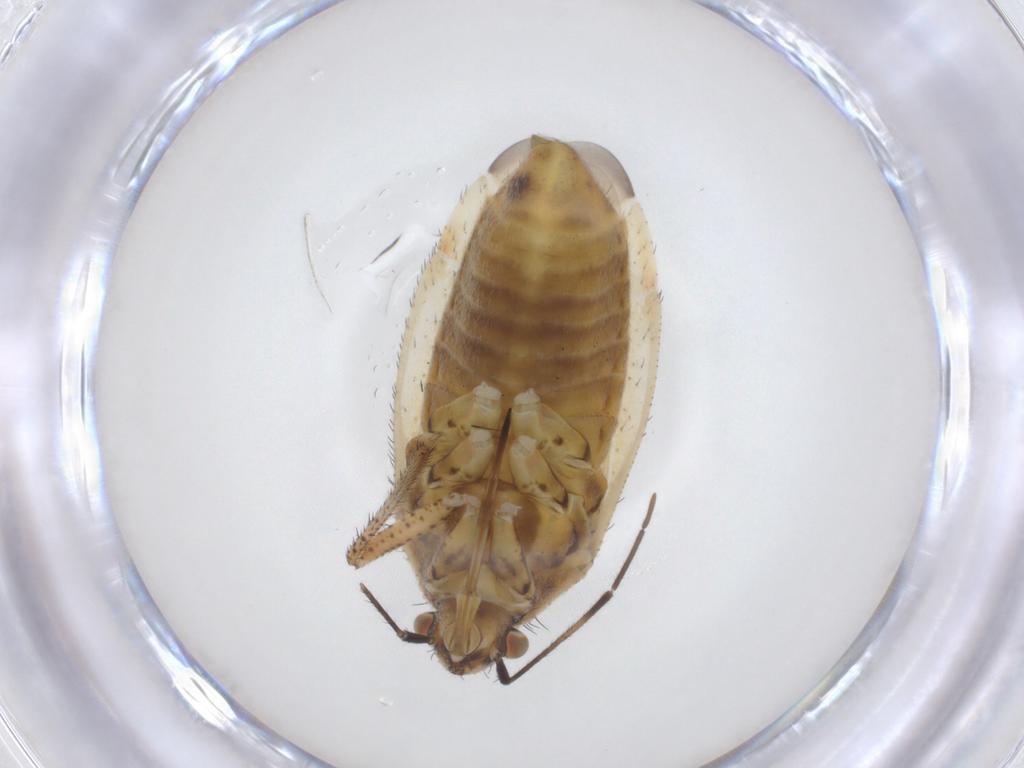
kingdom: Animalia
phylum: Arthropoda
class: Insecta
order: Hemiptera
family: Miridae
